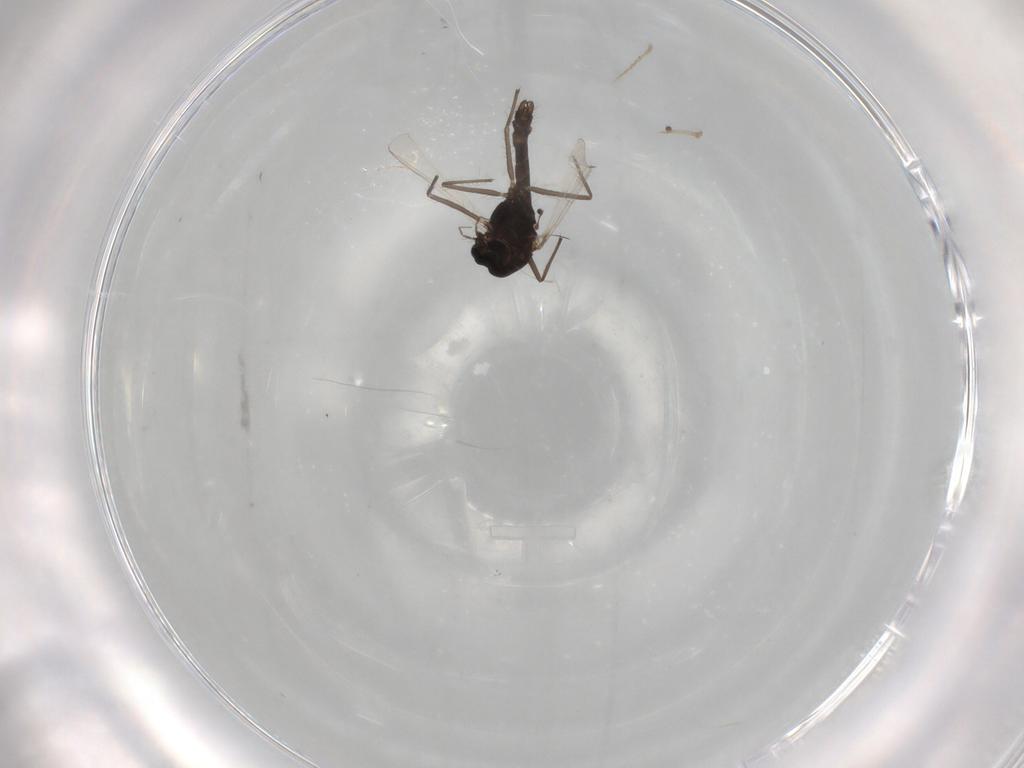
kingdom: Animalia
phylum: Arthropoda
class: Insecta
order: Diptera
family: Chironomidae
